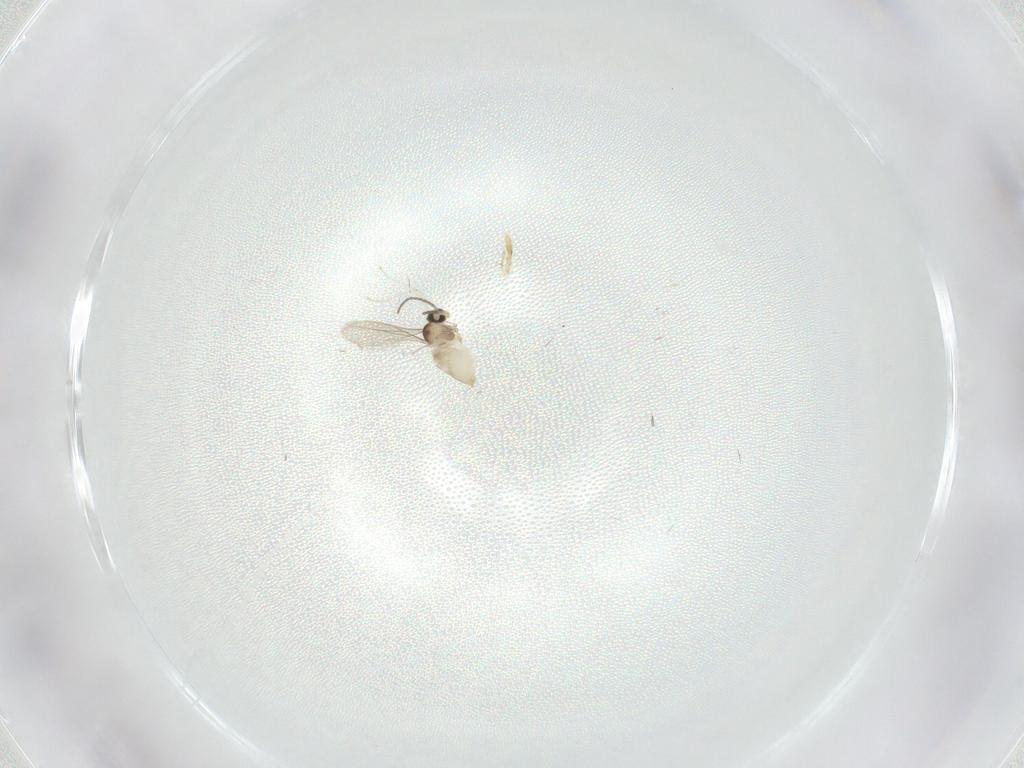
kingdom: Animalia
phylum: Arthropoda
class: Insecta
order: Diptera
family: Cecidomyiidae
